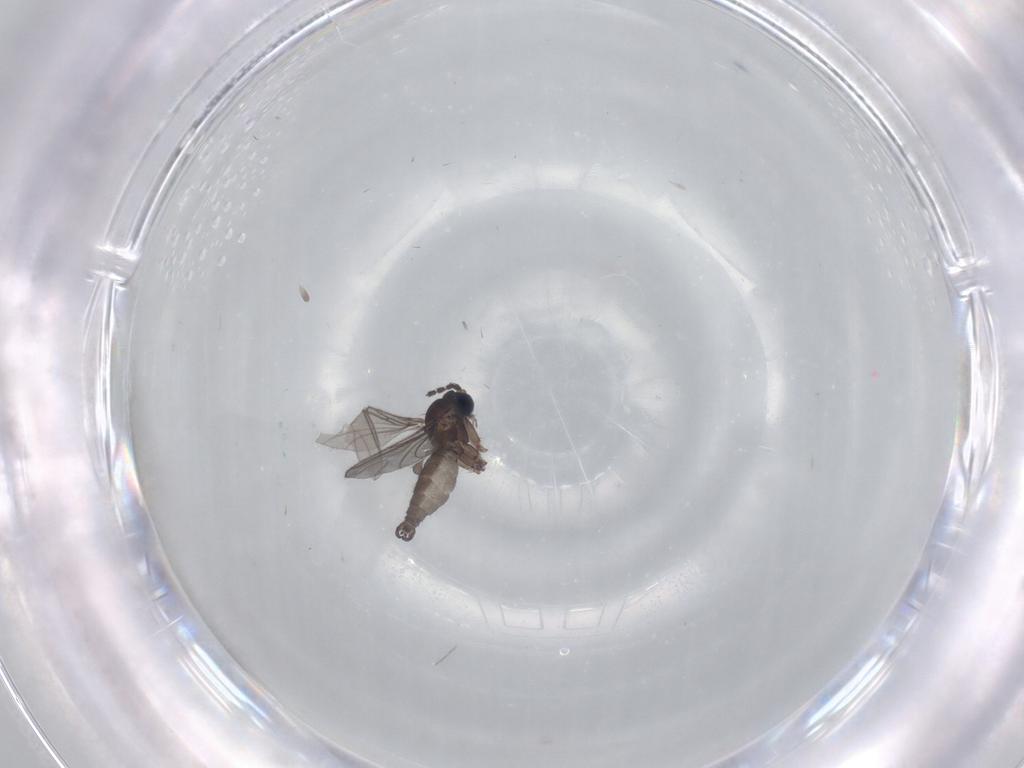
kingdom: Animalia
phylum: Arthropoda
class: Insecta
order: Diptera
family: Sciaridae
